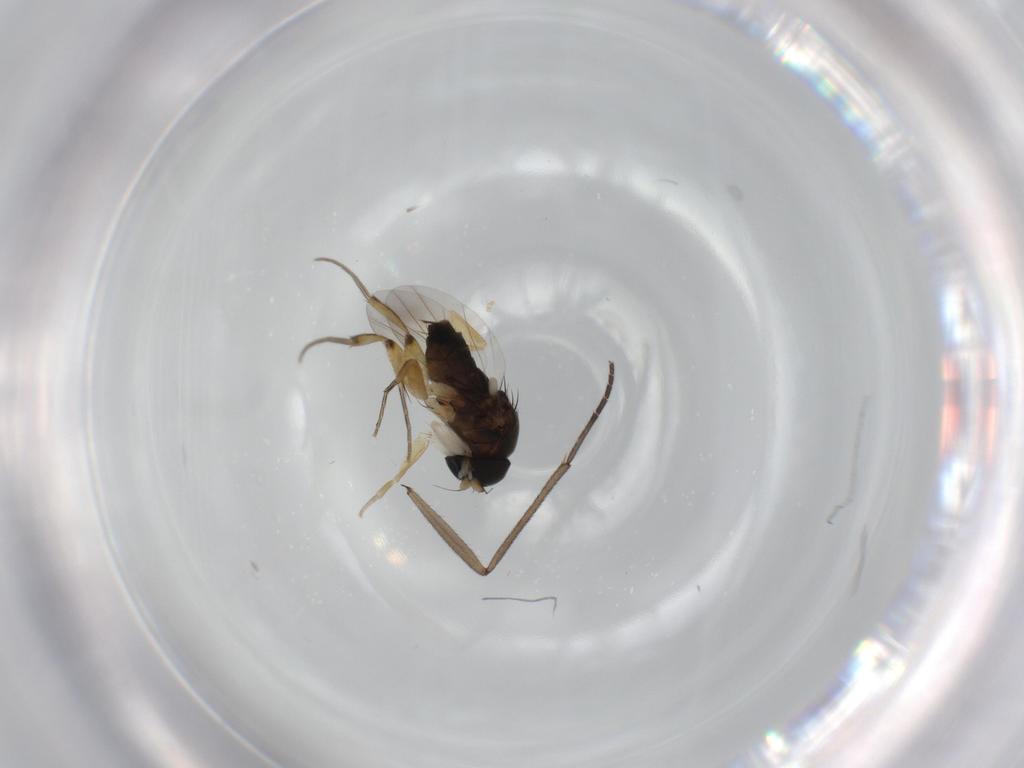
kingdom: Animalia
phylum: Arthropoda
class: Insecta
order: Diptera
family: Phoridae
